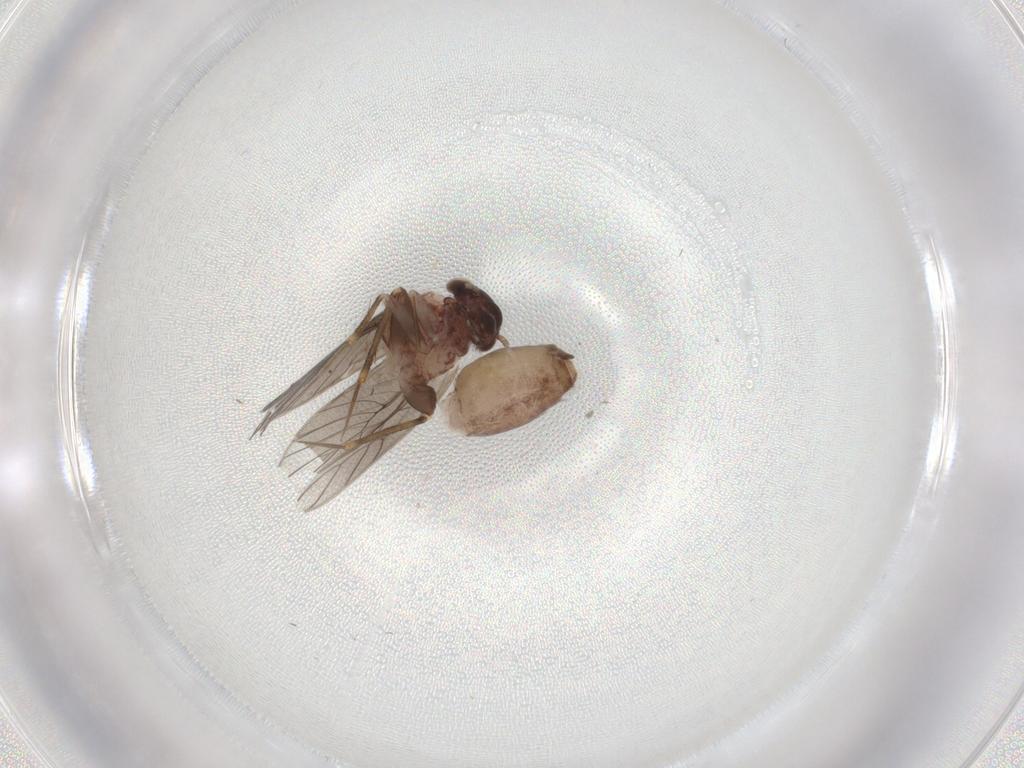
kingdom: Animalia
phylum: Arthropoda
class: Insecta
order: Psocodea
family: Lepidopsocidae
